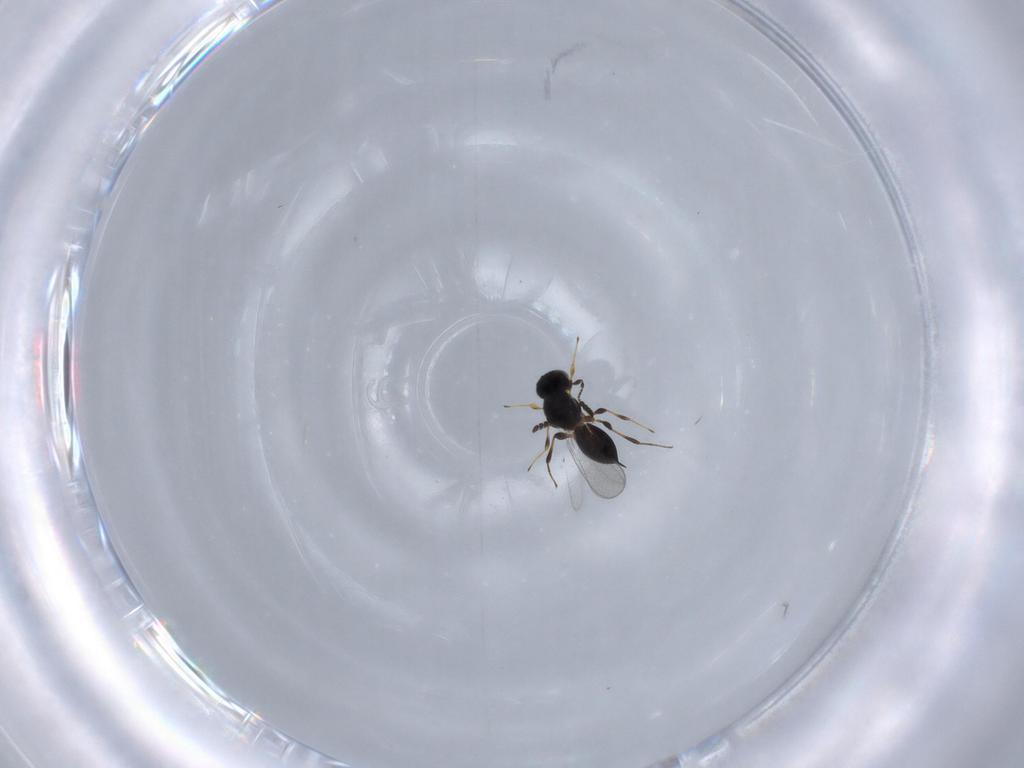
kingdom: Animalia
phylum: Arthropoda
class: Insecta
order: Hymenoptera
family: Platygastridae
